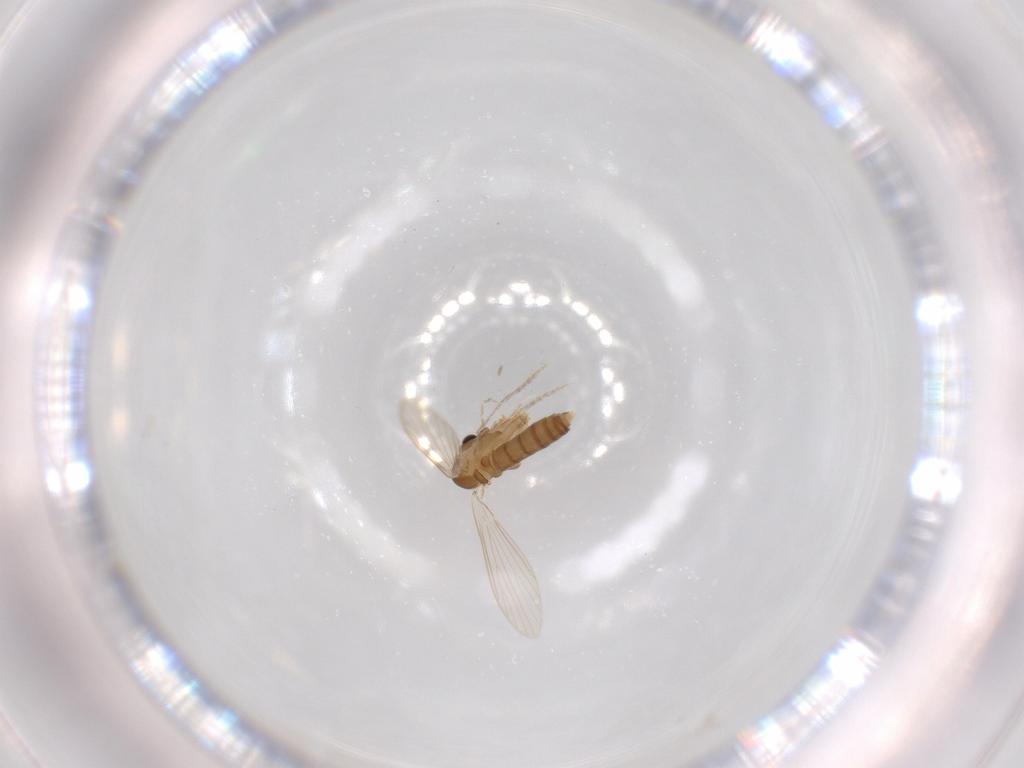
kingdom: Animalia
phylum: Arthropoda
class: Insecta
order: Diptera
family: Psychodidae
